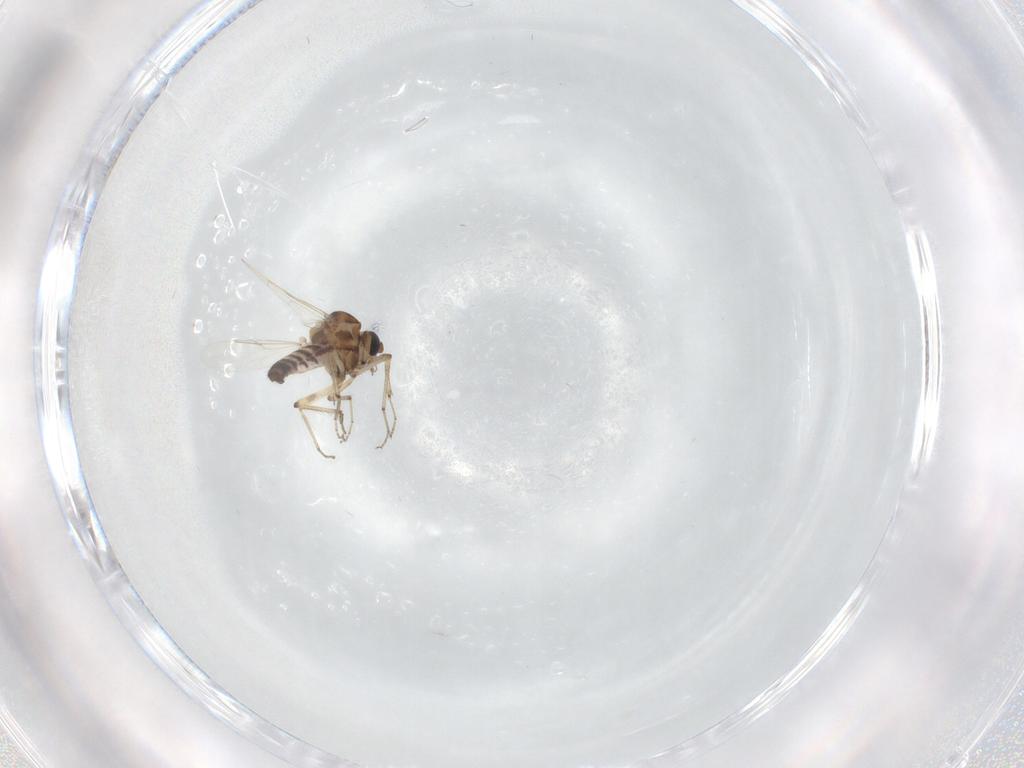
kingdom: Animalia
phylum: Arthropoda
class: Insecta
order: Diptera
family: Ceratopogonidae
